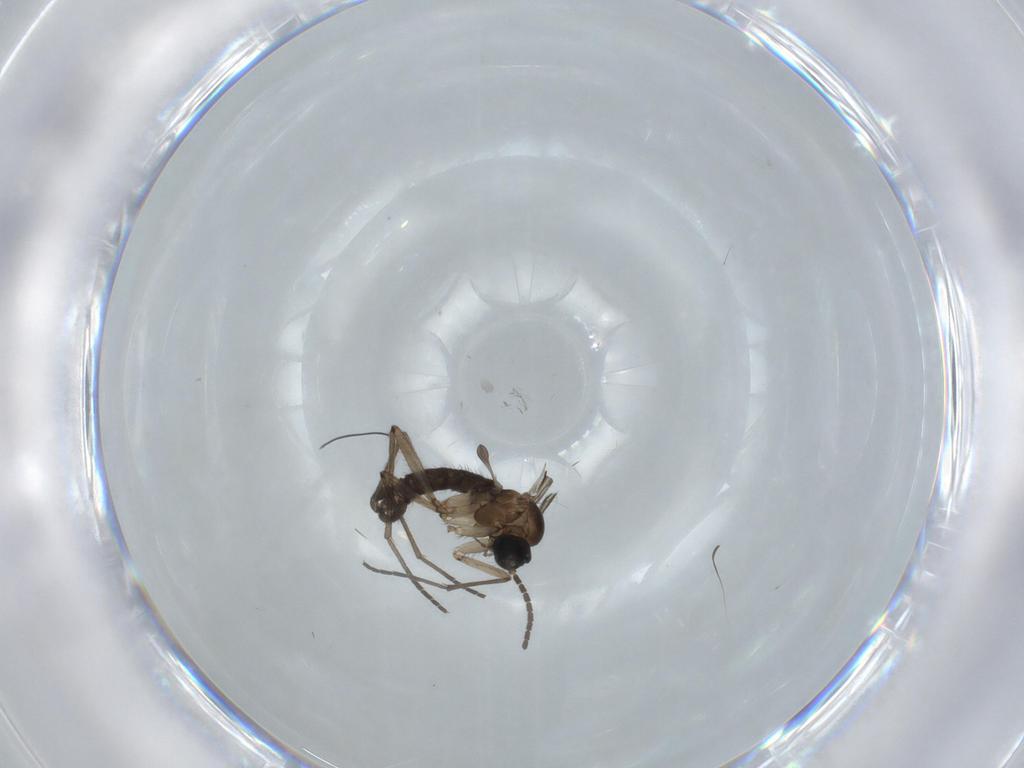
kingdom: Animalia
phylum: Arthropoda
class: Insecta
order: Diptera
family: Sciaridae
